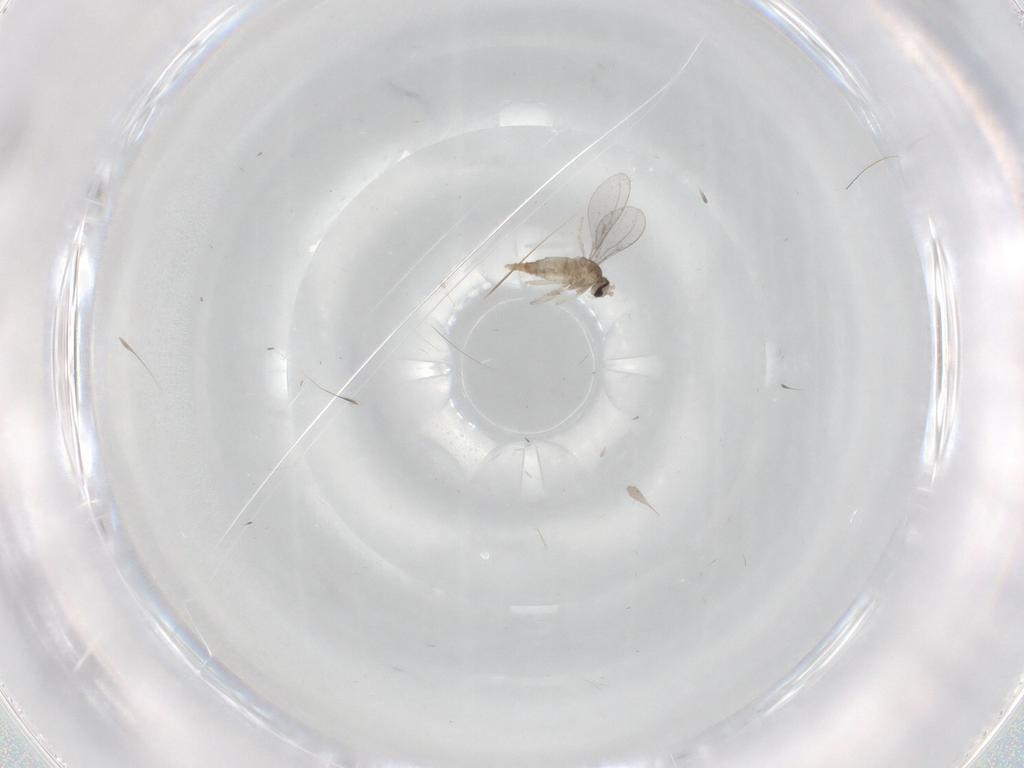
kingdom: Animalia
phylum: Arthropoda
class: Insecta
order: Diptera
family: Cecidomyiidae
